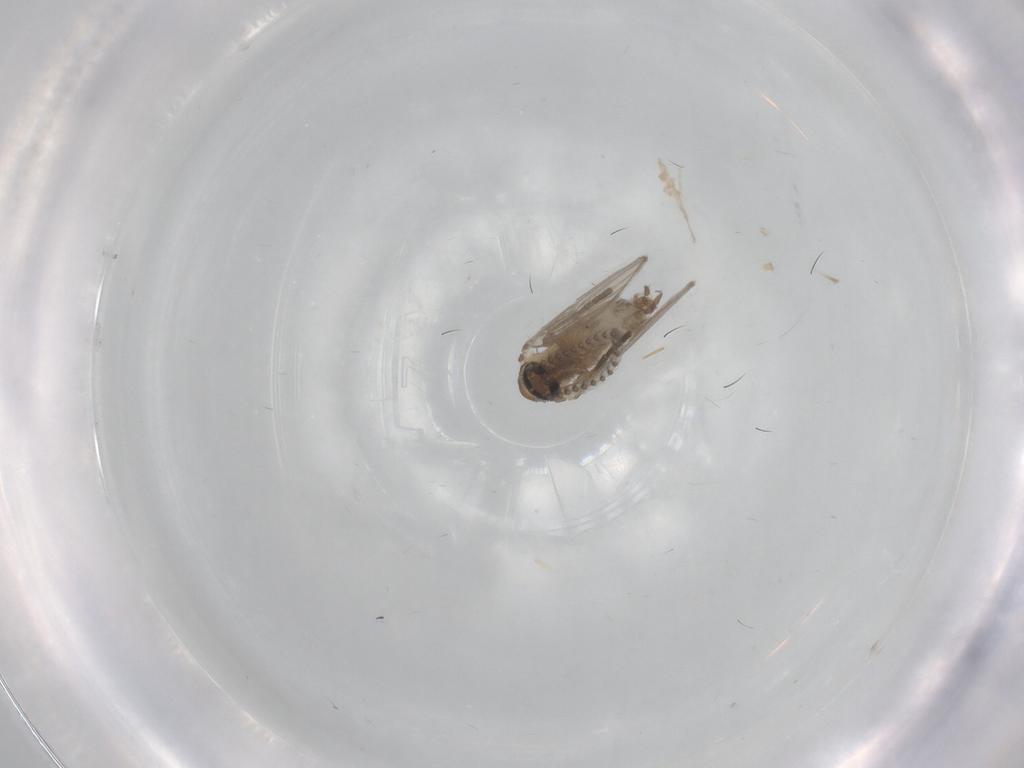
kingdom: Animalia
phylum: Arthropoda
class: Insecta
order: Diptera
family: Psychodidae
